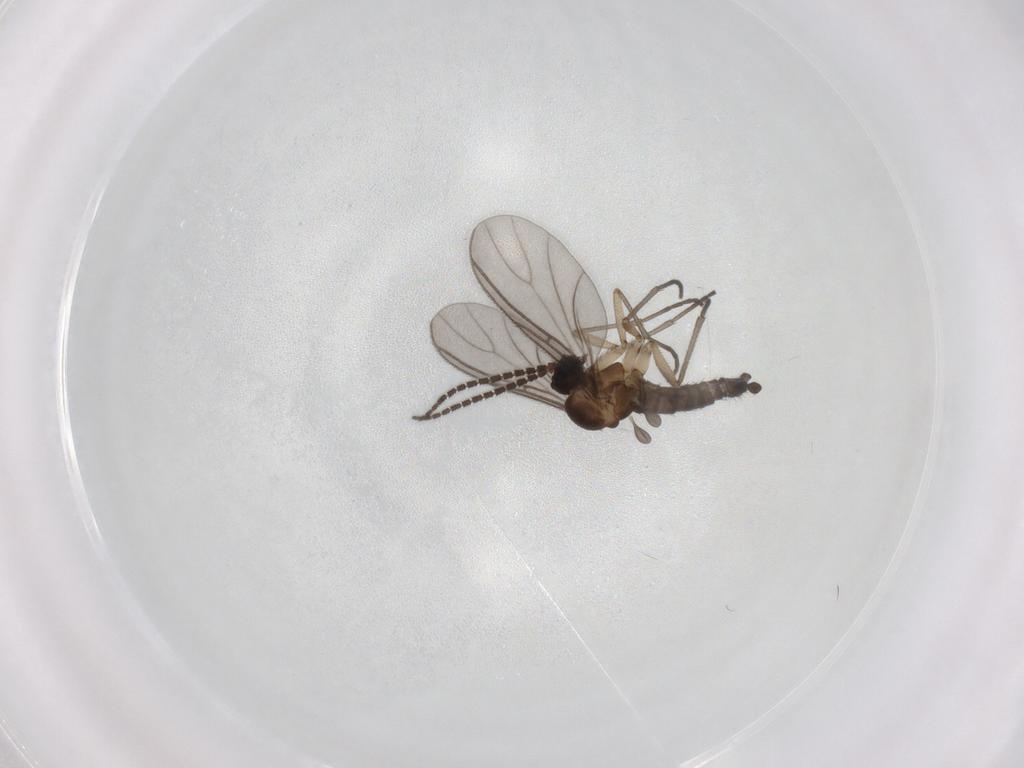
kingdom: Animalia
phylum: Arthropoda
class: Insecta
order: Diptera
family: Sciaridae
